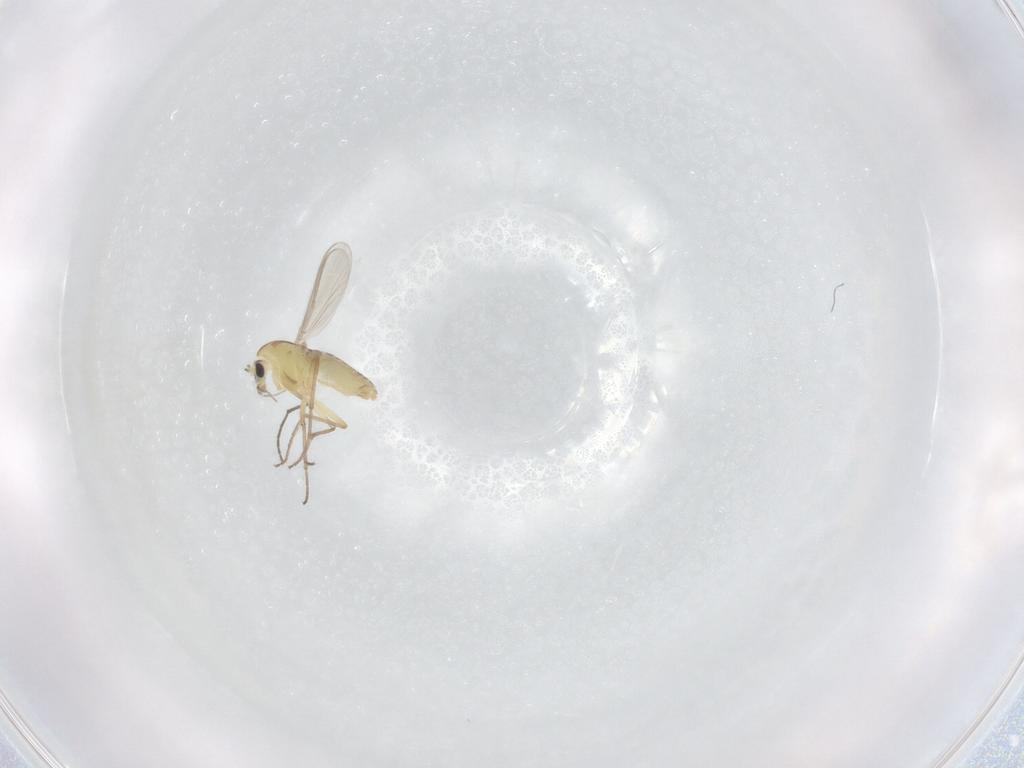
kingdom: Animalia
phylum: Arthropoda
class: Insecta
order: Diptera
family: Chironomidae
